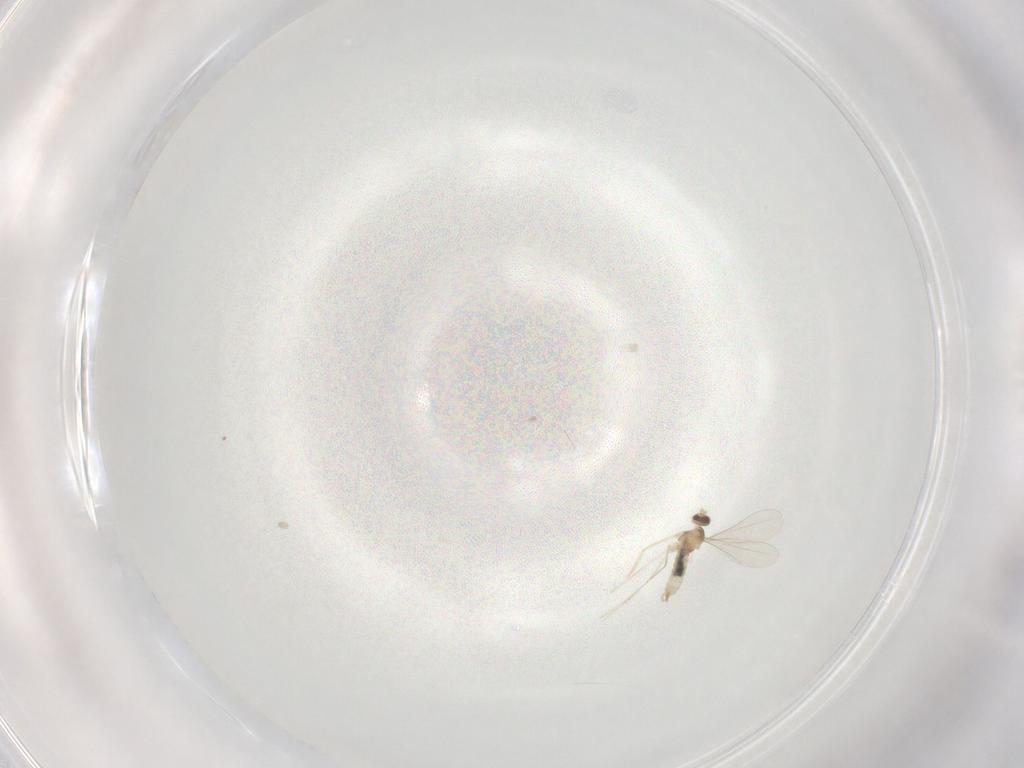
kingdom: Animalia
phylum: Arthropoda
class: Insecta
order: Diptera
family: Cecidomyiidae
